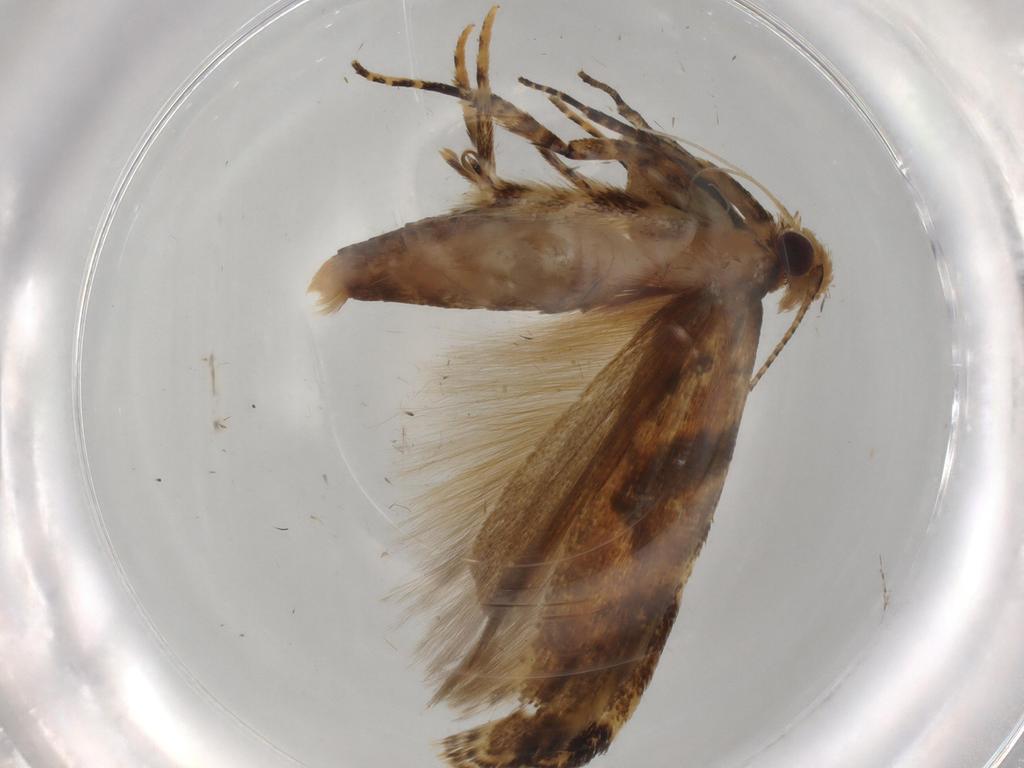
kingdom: Animalia
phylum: Arthropoda
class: Insecta
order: Lepidoptera
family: Gelechiidae
